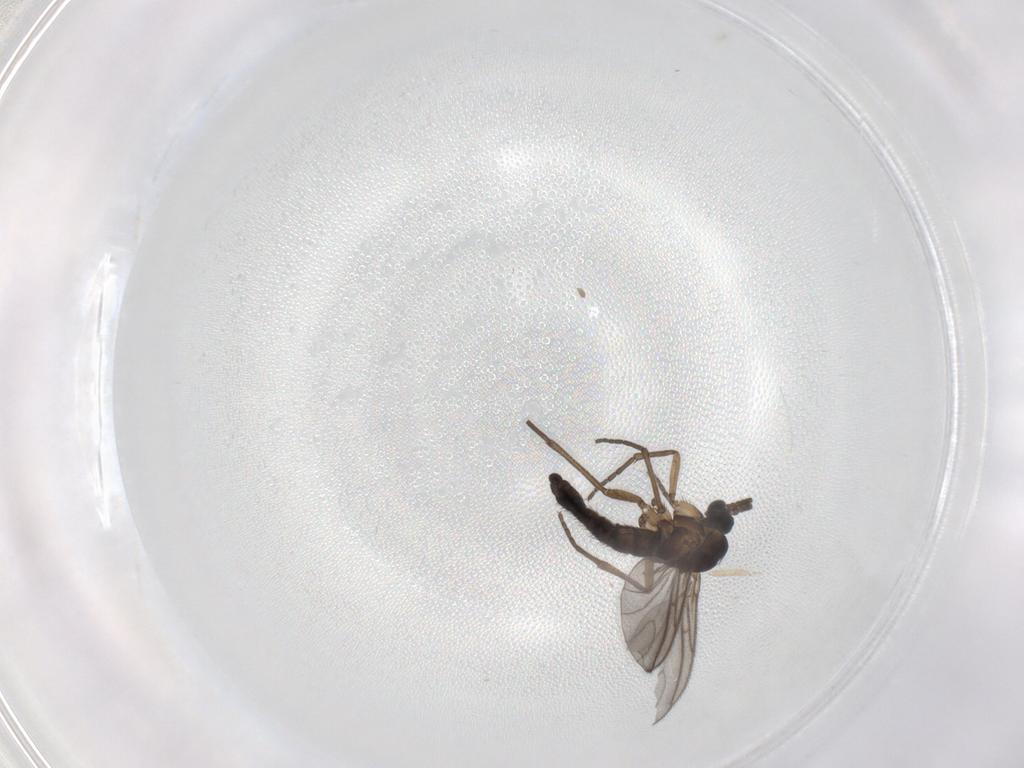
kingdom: Animalia
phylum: Arthropoda
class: Insecta
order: Diptera
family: Sciaridae
